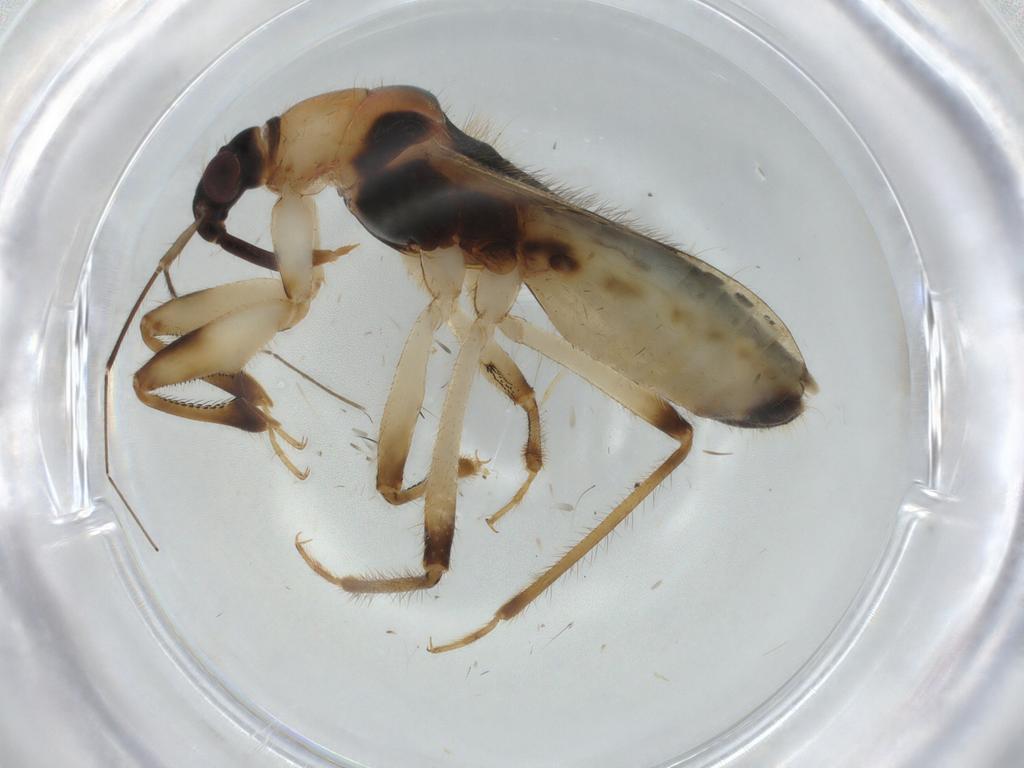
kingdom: Animalia
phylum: Arthropoda
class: Insecta
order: Hemiptera
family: Nabidae
